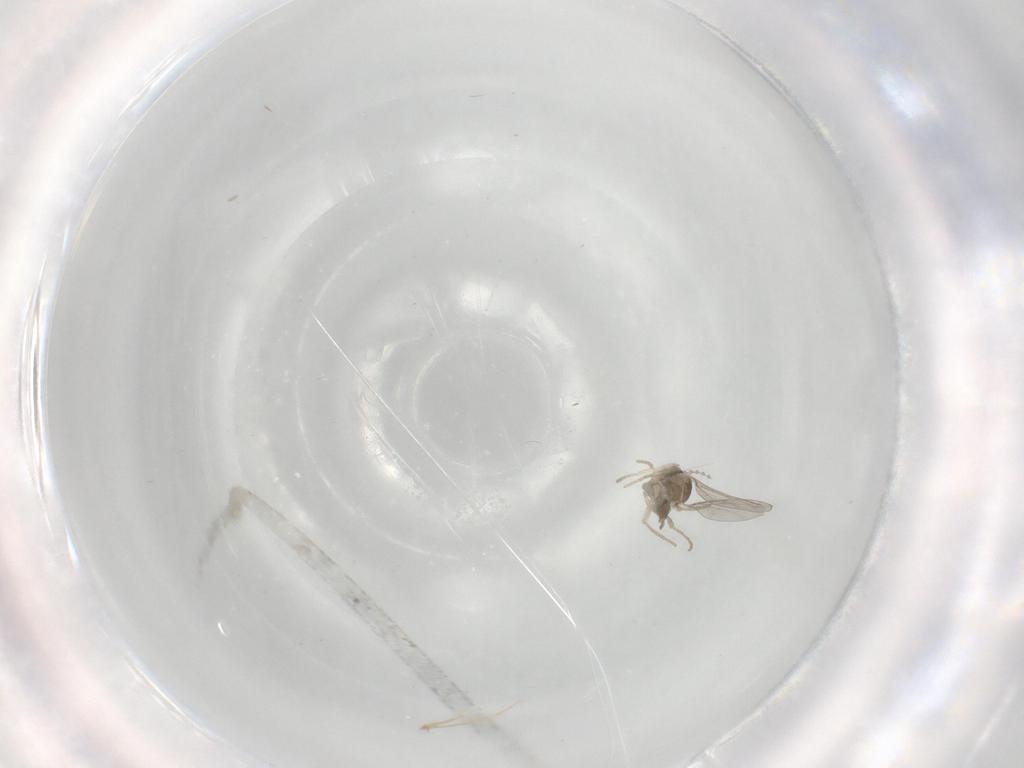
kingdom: Animalia
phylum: Arthropoda
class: Insecta
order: Diptera
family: Cecidomyiidae
